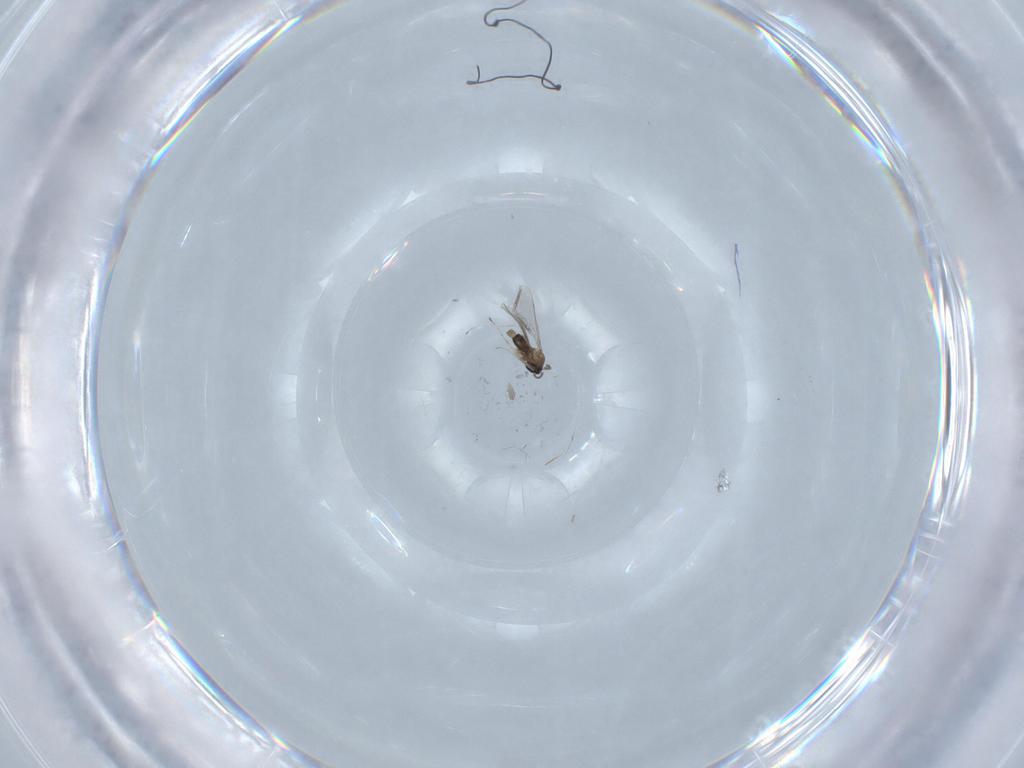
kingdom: Animalia
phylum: Arthropoda
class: Insecta
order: Diptera
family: Cecidomyiidae
